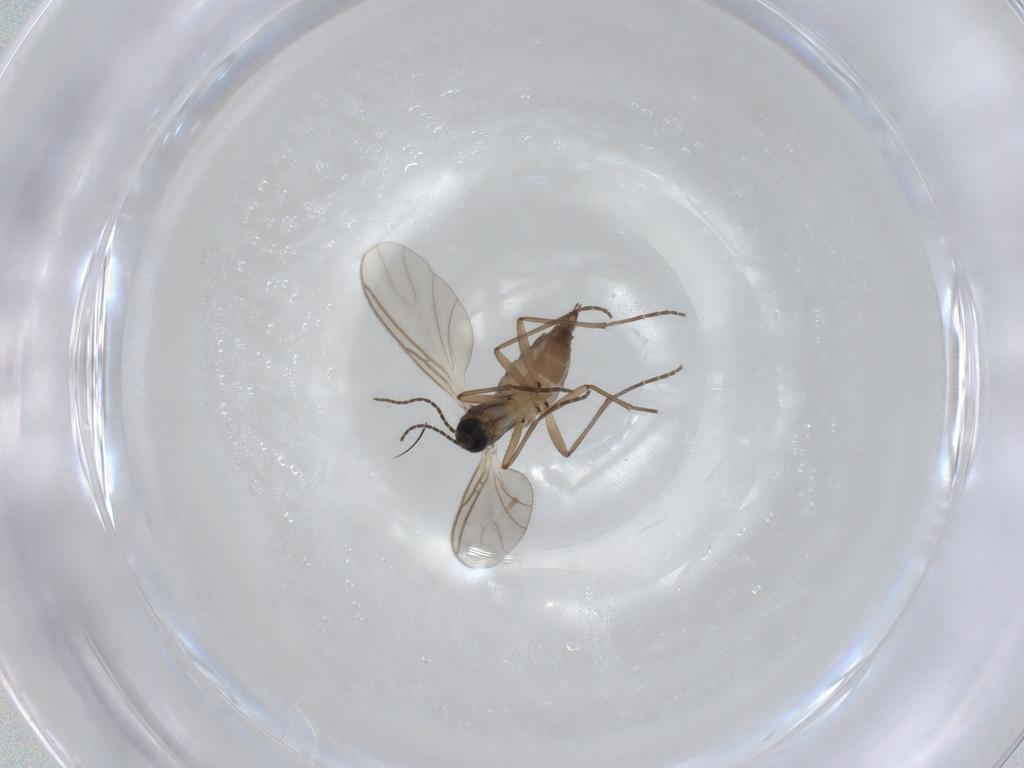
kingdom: Animalia
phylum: Arthropoda
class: Insecta
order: Diptera
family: Sciaridae
